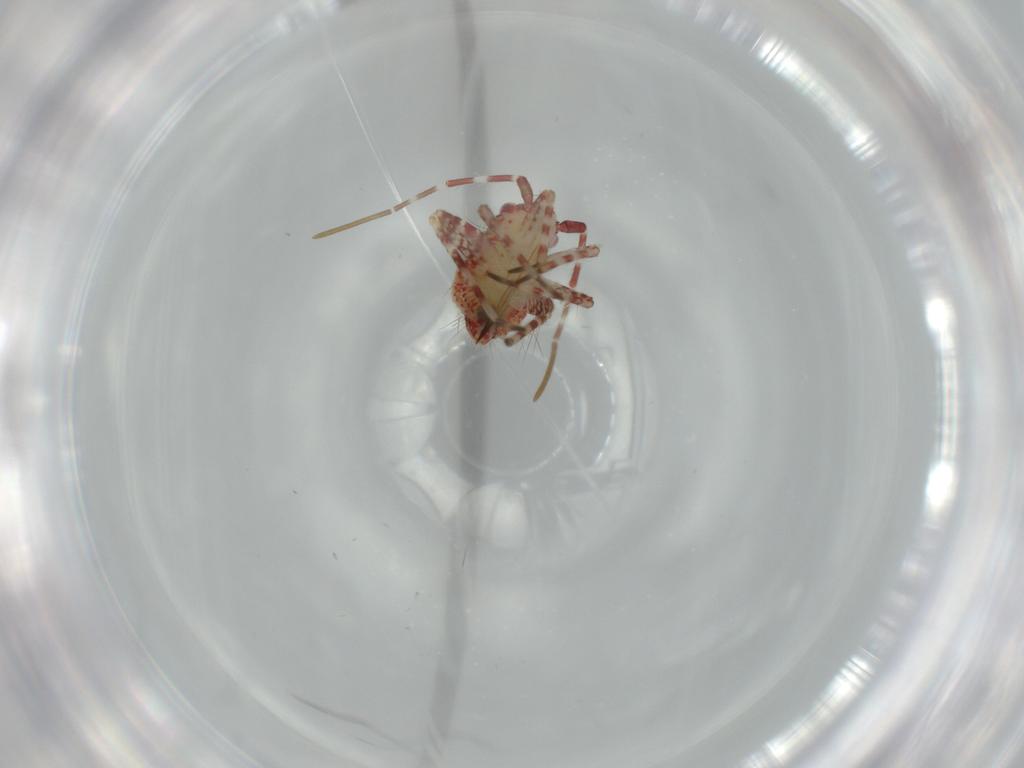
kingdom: Animalia
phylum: Arthropoda
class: Insecta
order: Hemiptera
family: Miridae
